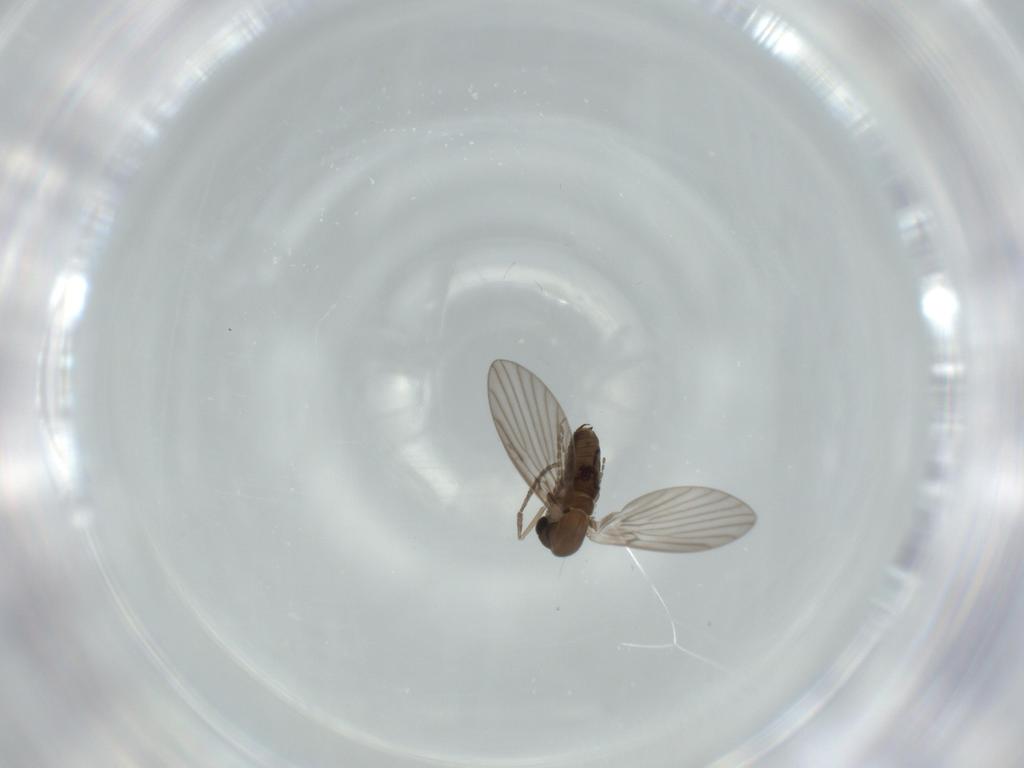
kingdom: Animalia
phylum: Arthropoda
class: Insecta
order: Diptera
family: Psychodidae
